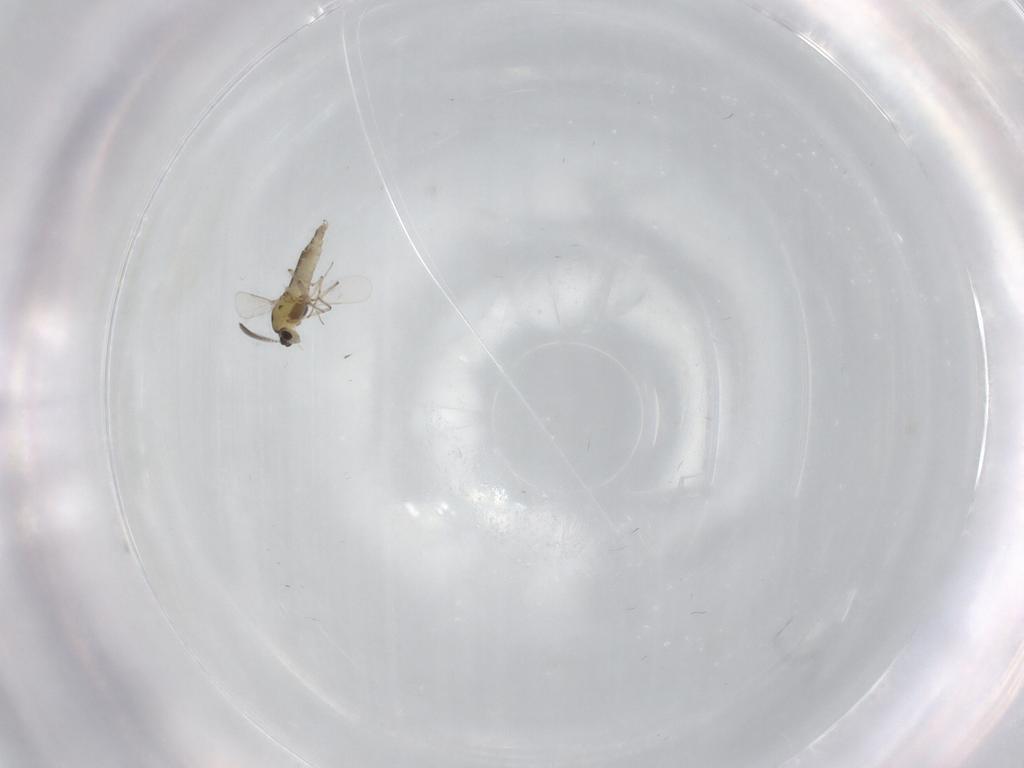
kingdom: Animalia
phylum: Arthropoda
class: Insecta
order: Diptera
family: Chironomidae
